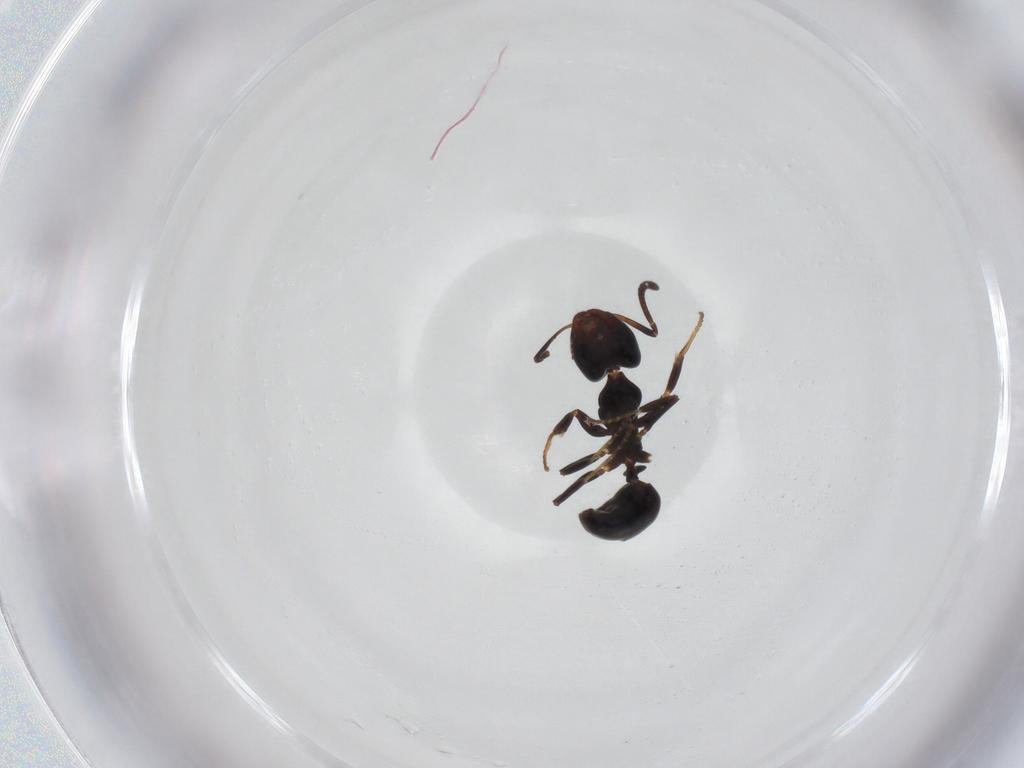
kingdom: Animalia
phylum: Arthropoda
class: Insecta
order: Hymenoptera
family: Formicidae
